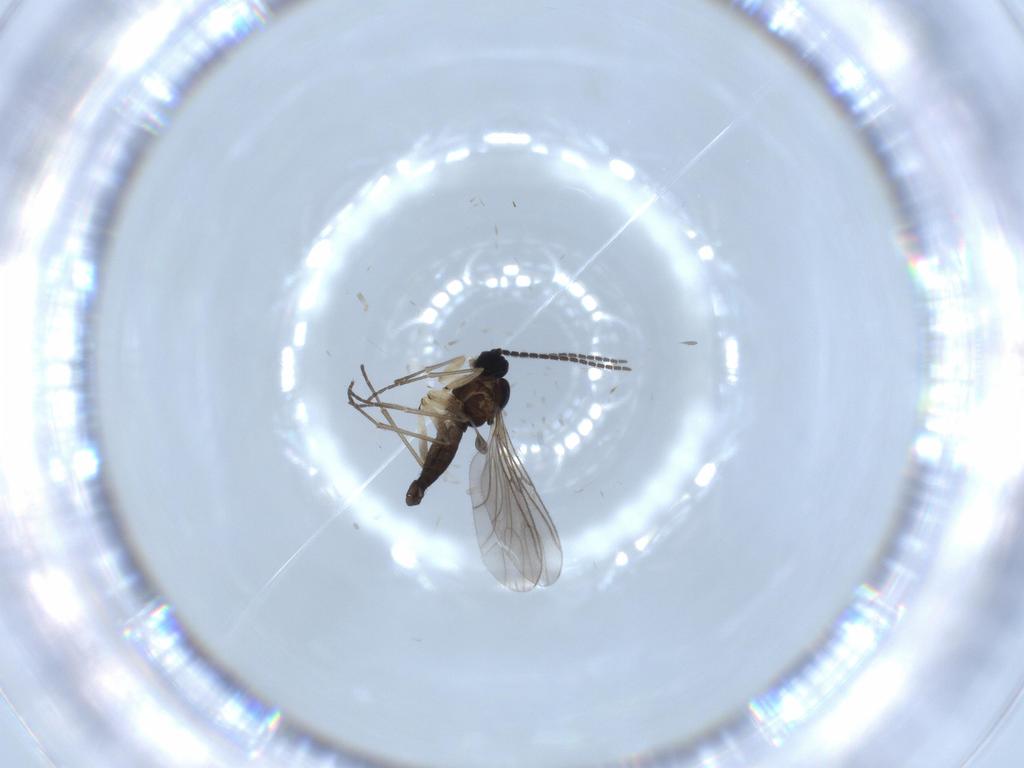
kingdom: Animalia
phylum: Arthropoda
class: Insecta
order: Diptera
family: Sciaridae
